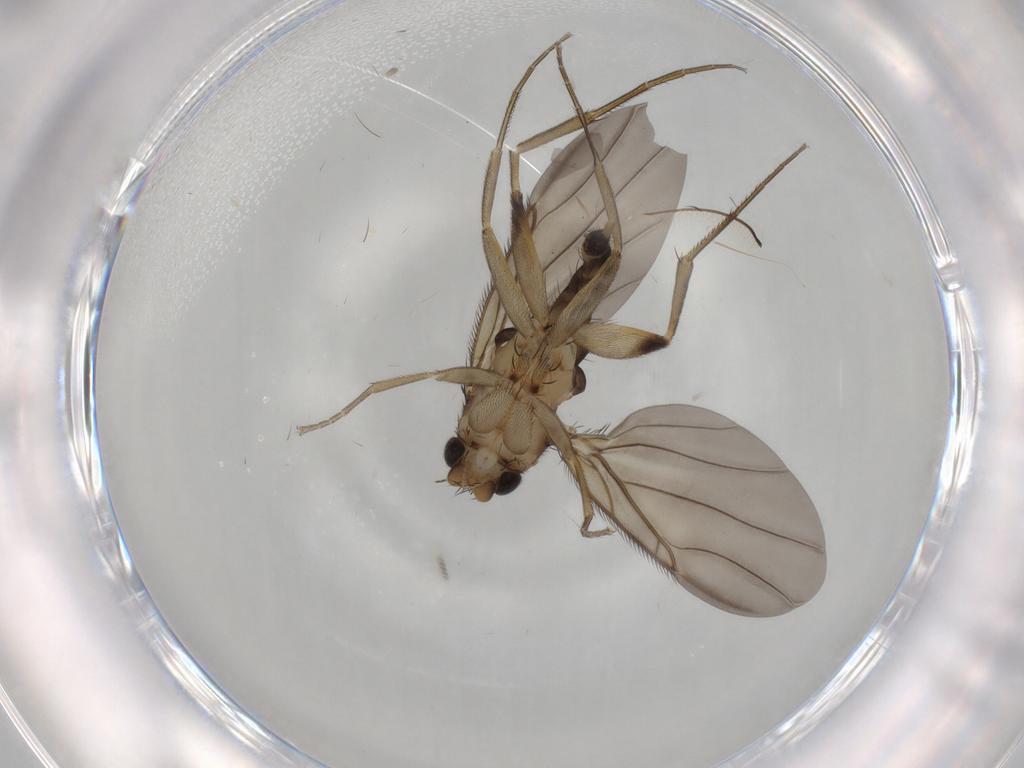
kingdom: Animalia
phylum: Arthropoda
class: Insecta
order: Diptera
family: Phoridae
